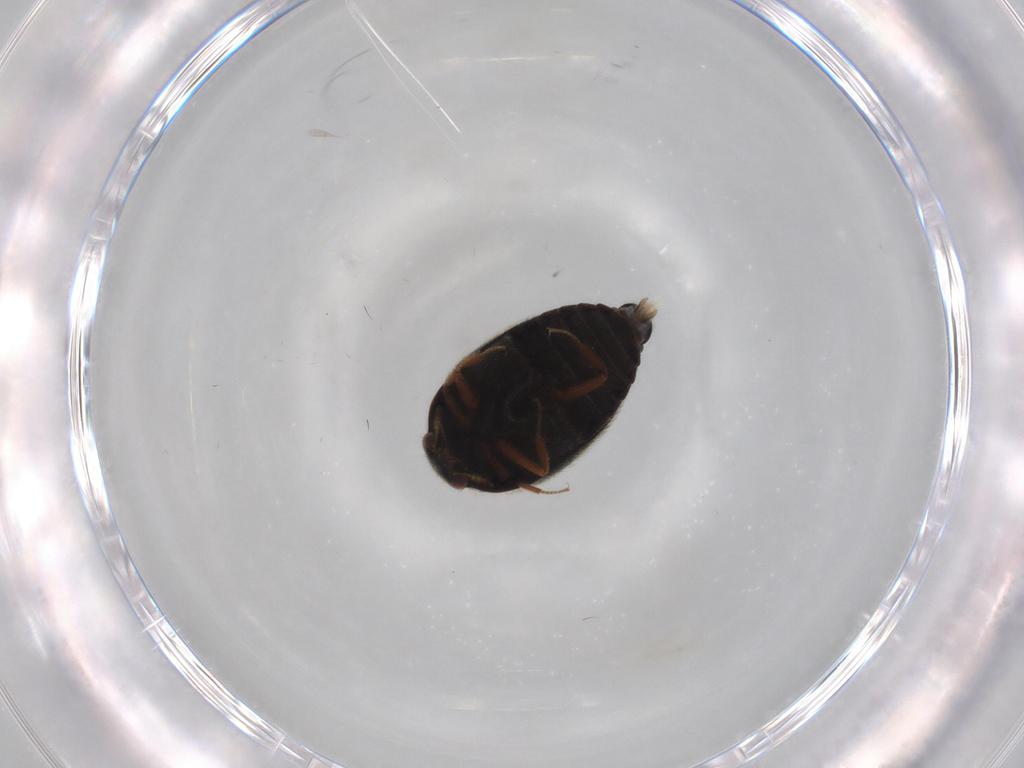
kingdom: Animalia
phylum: Arthropoda
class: Insecta
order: Coleoptera
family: Dermestidae
